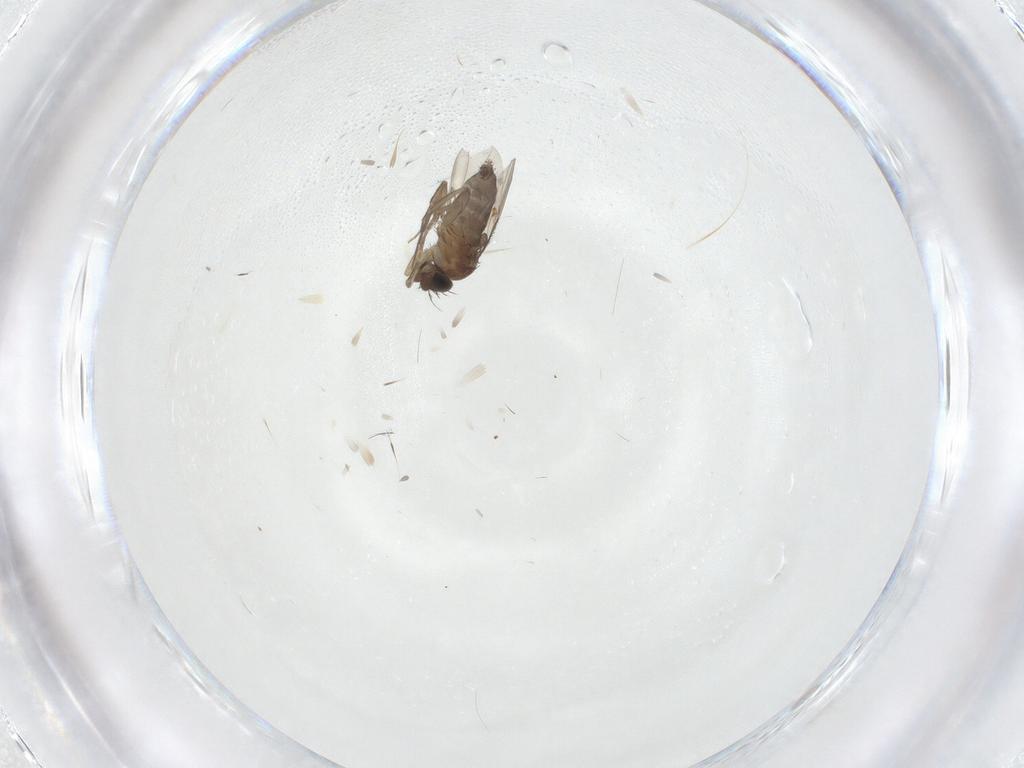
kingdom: Animalia
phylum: Arthropoda
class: Insecta
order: Diptera
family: Phoridae
